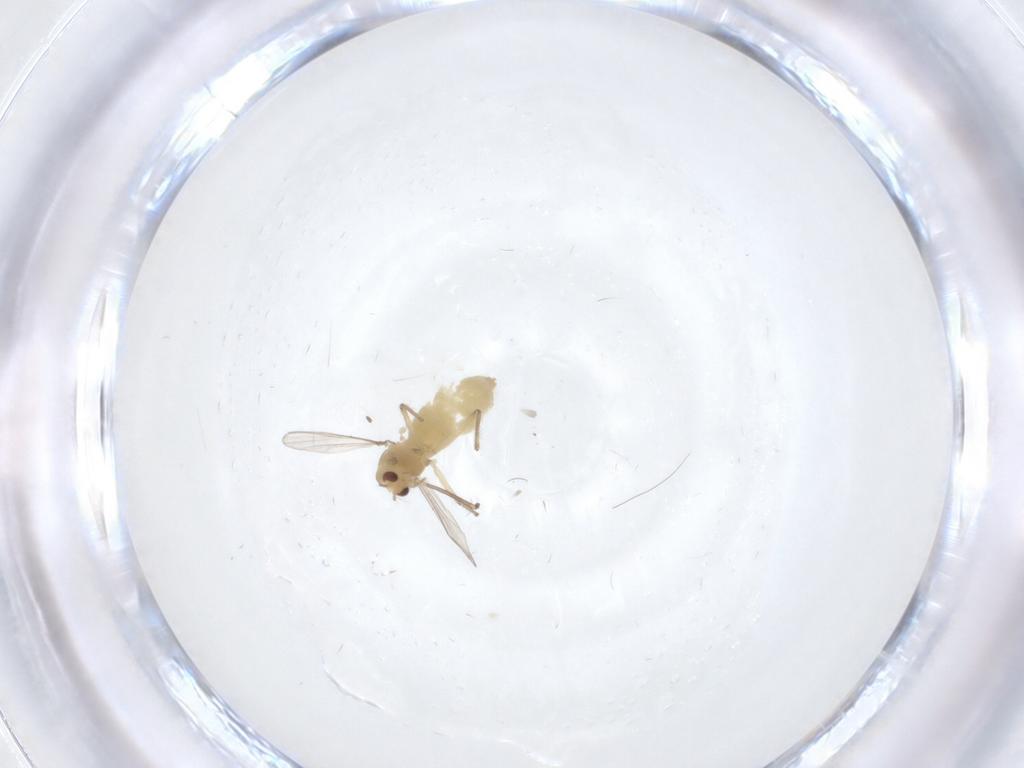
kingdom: Animalia
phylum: Arthropoda
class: Insecta
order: Diptera
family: Chironomidae
